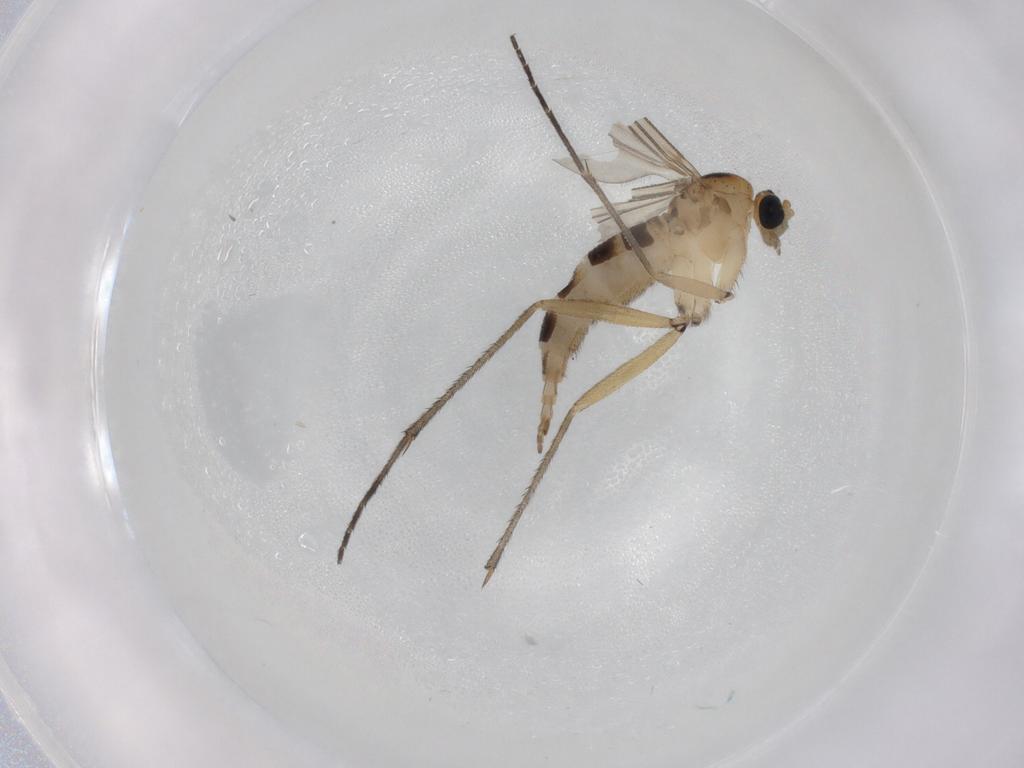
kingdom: Animalia
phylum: Arthropoda
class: Insecta
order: Diptera
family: Sciaridae
